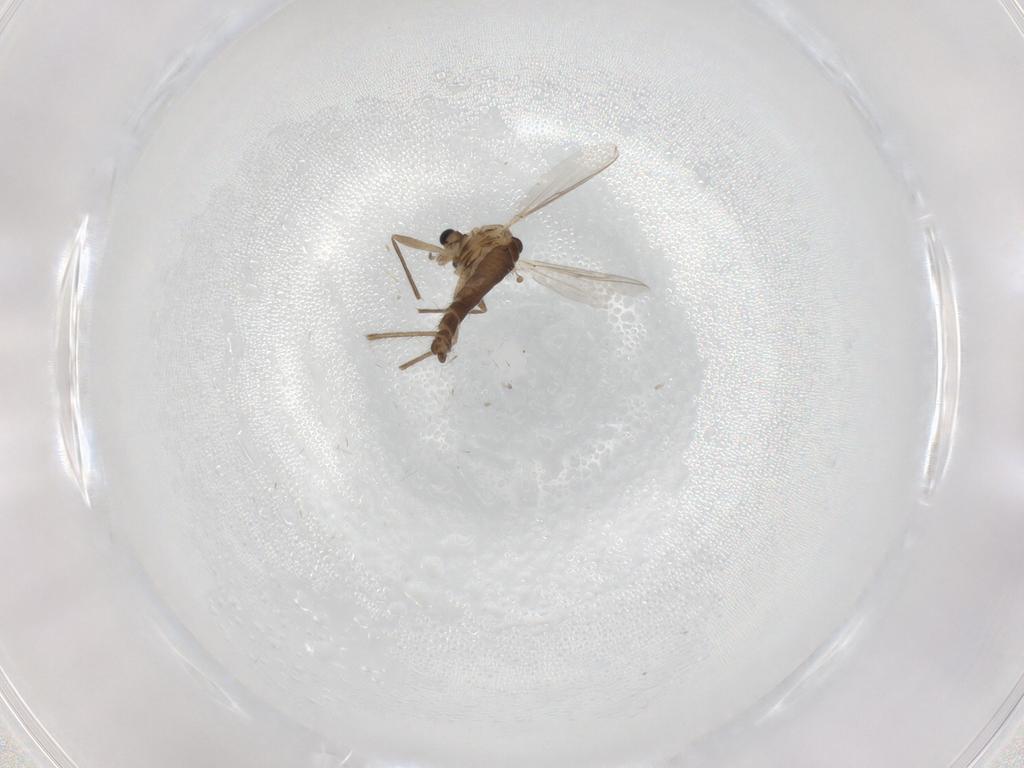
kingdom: Animalia
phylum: Arthropoda
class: Insecta
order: Diptera
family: Chironomidae
